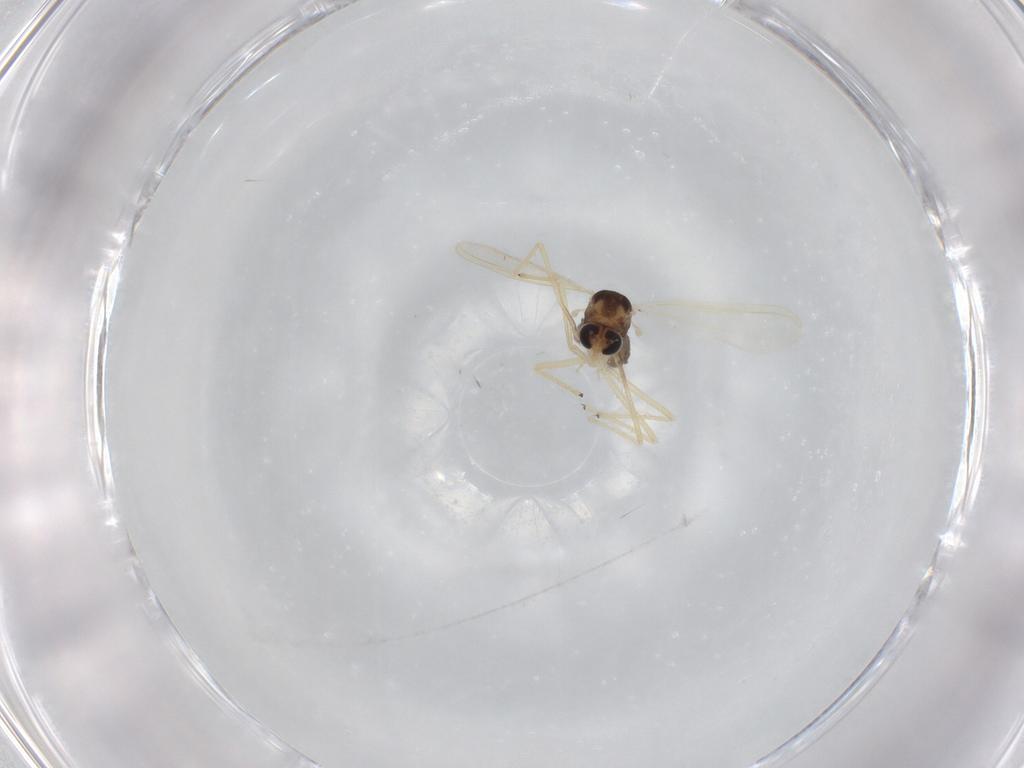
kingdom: Animalia
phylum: Arthropoda
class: Insecta
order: Diptera
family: Chironomidae
